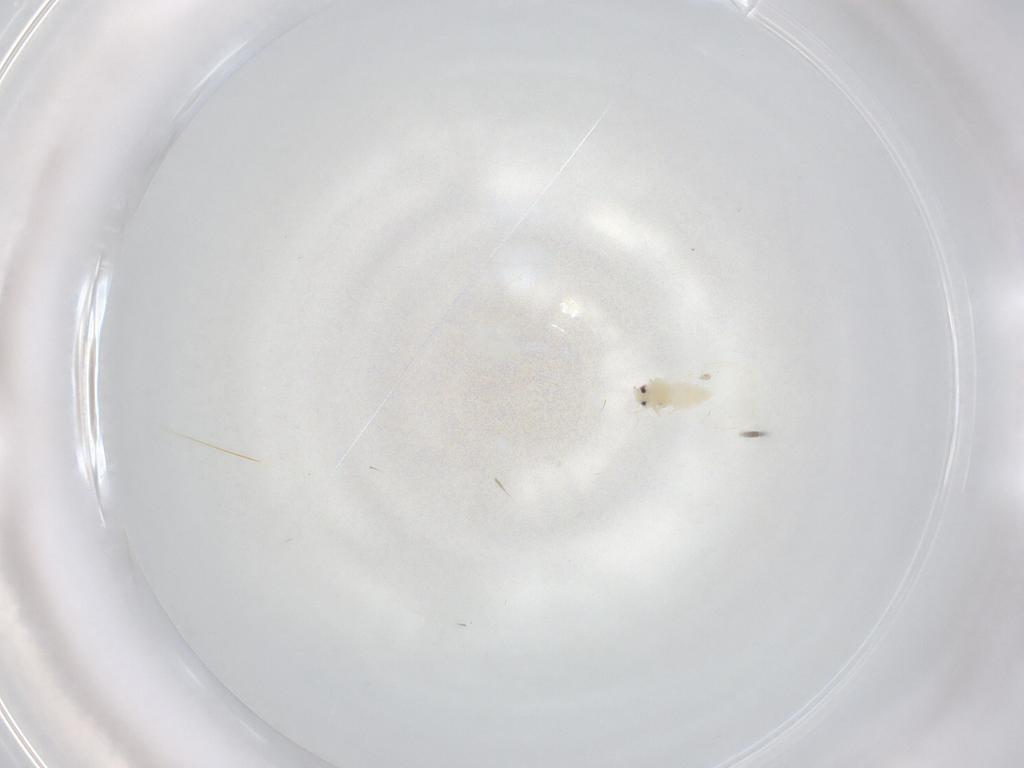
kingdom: Animalia
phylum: Arthropoda
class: Insecta
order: Hemiptera
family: Aleyrodidae
